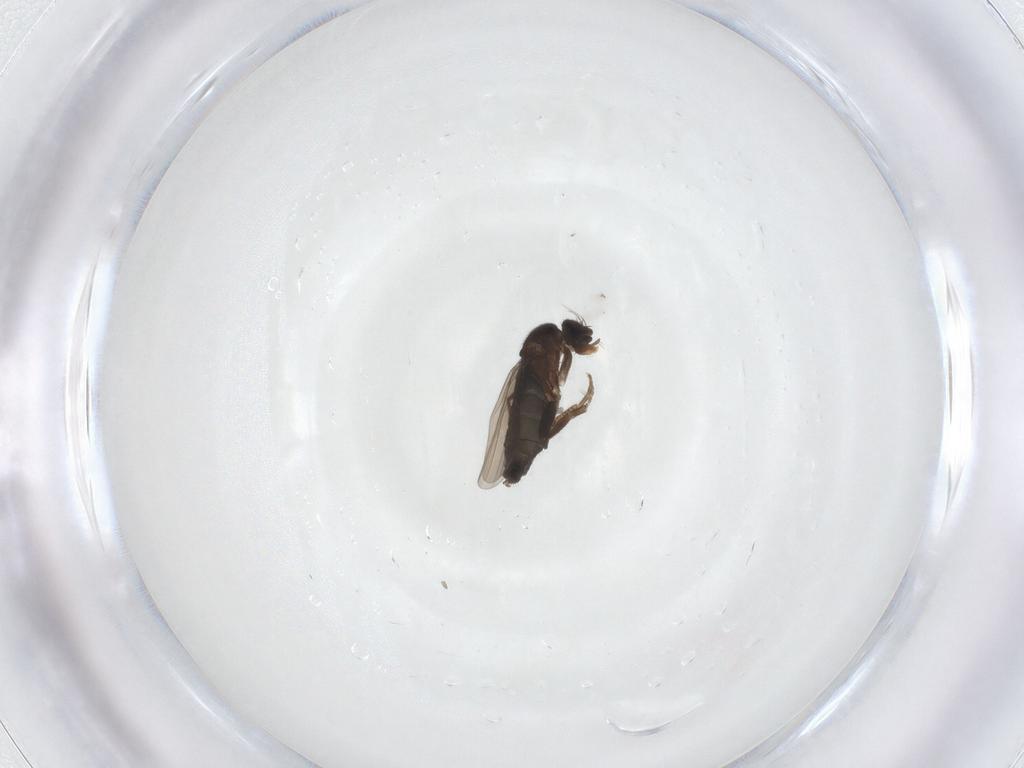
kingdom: Animalia
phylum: Arthropoda
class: Insecta
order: Diptera
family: Phoridae
